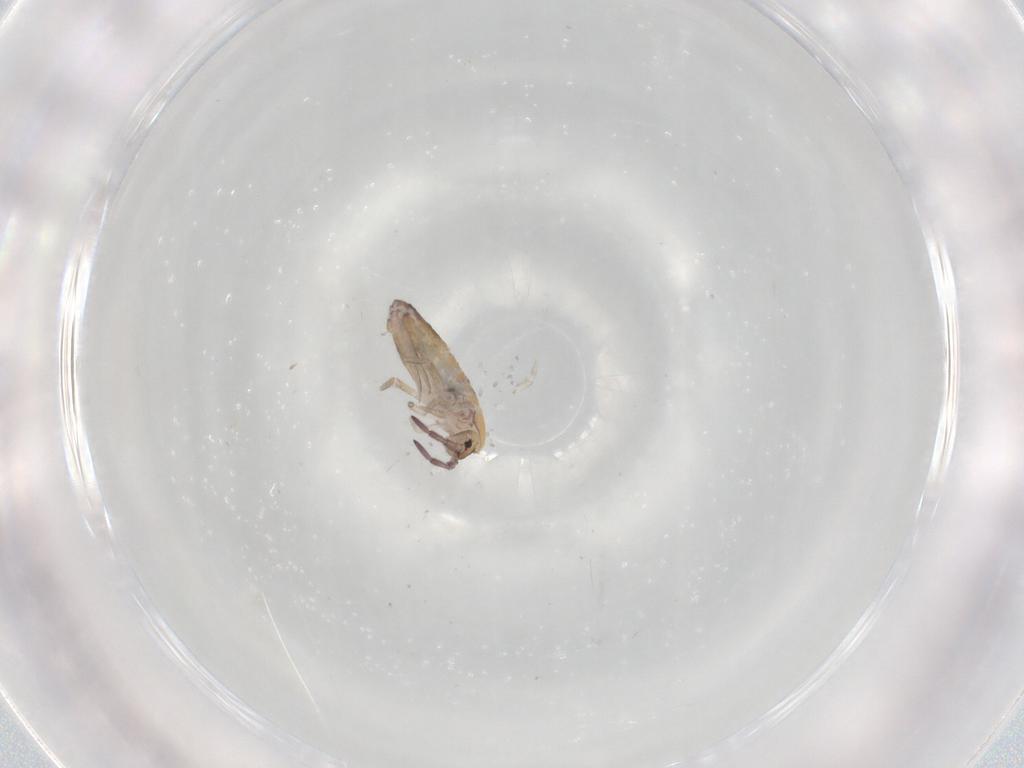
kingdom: Animalia
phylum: Arthropoda
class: Collembola
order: Entomobryomorpha
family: Entomobryidae
